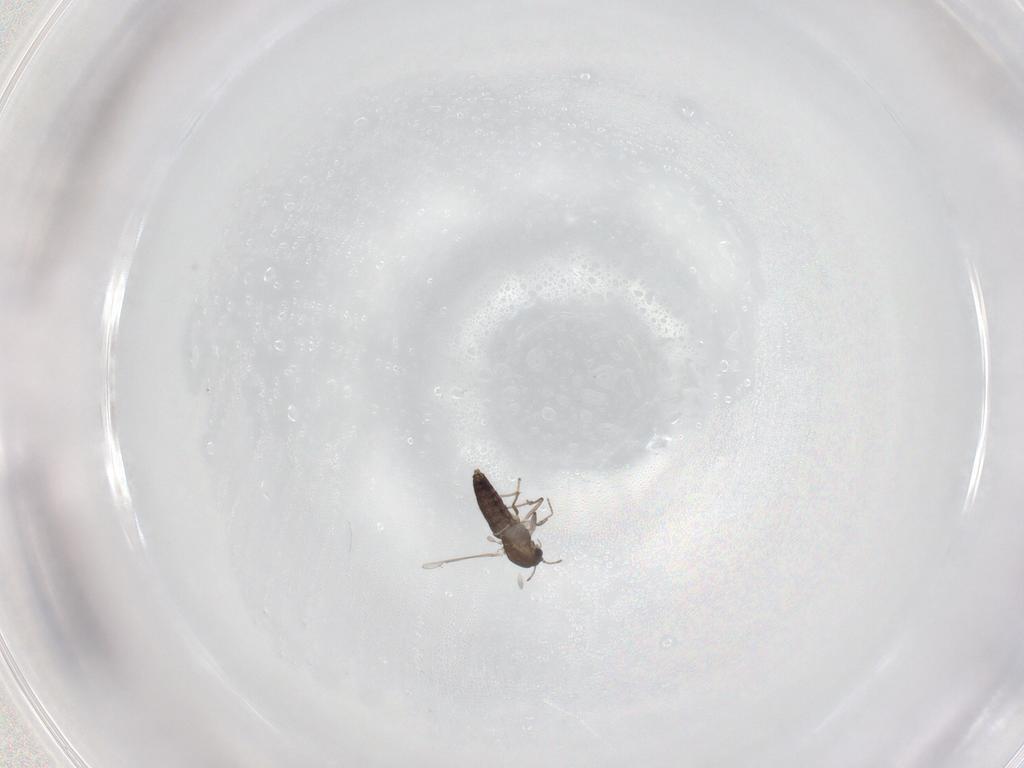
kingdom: Animalia
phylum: Arthropoda
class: Insecta
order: Diptera
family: Chironomidae
